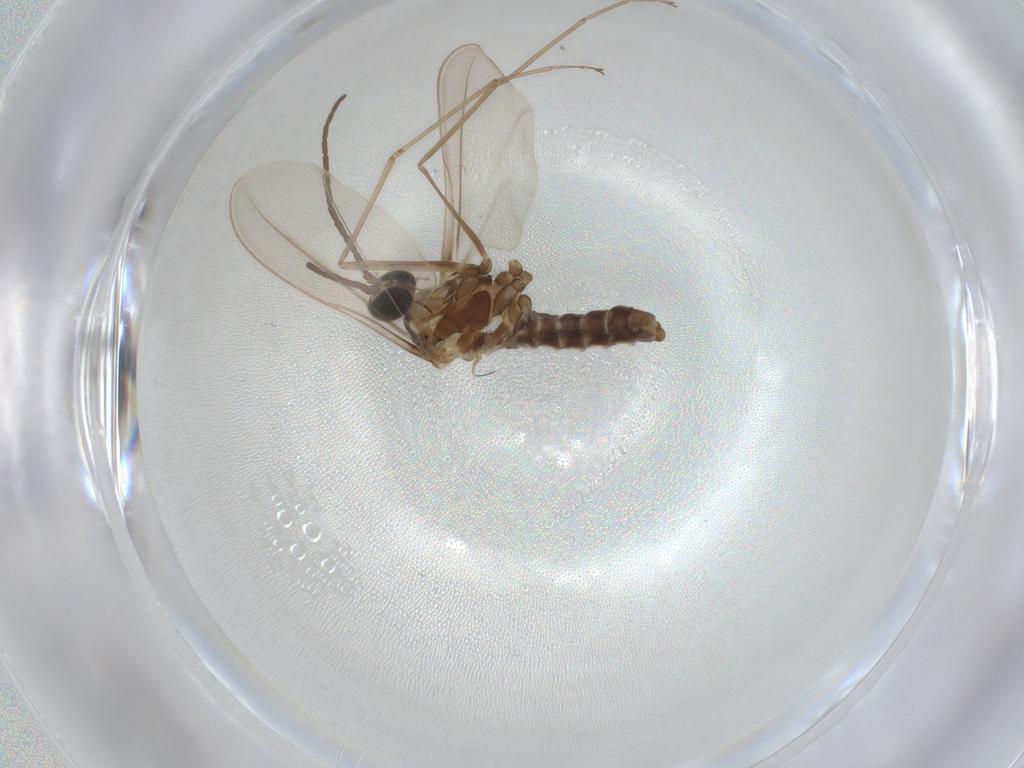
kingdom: Animalia
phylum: Arthropoda
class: Insecta
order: Diptera
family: Cecidomyiidae
